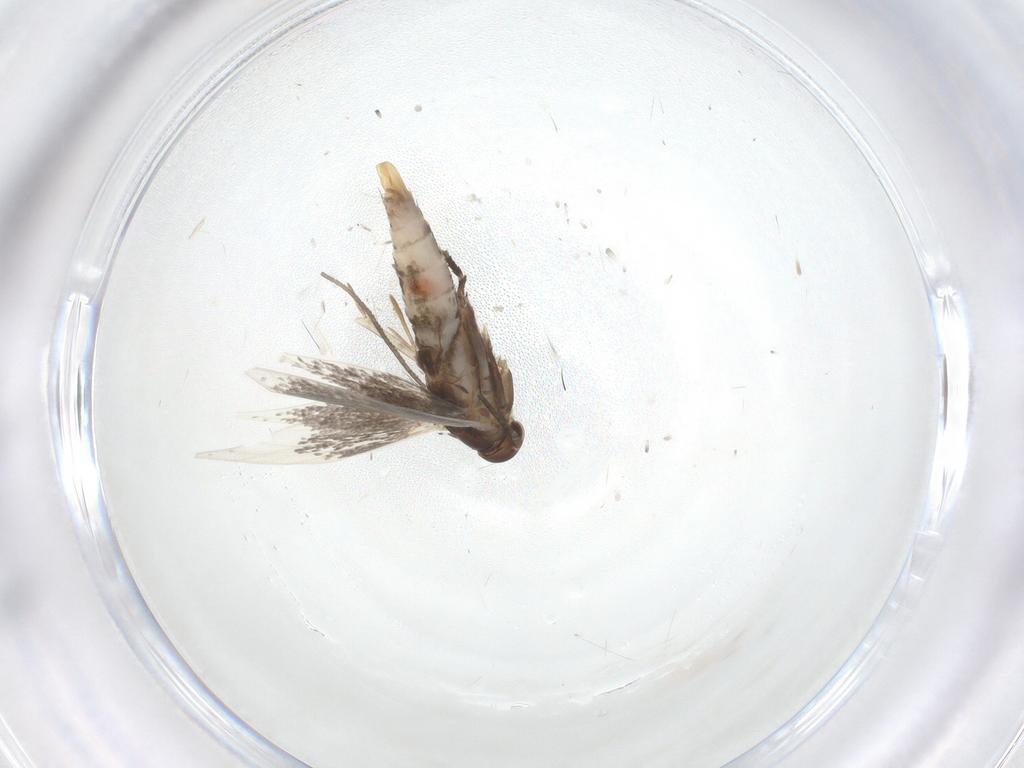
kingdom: Animalia
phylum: Arthropoda
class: Insecta
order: Lepidoptera
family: Elachistidae
